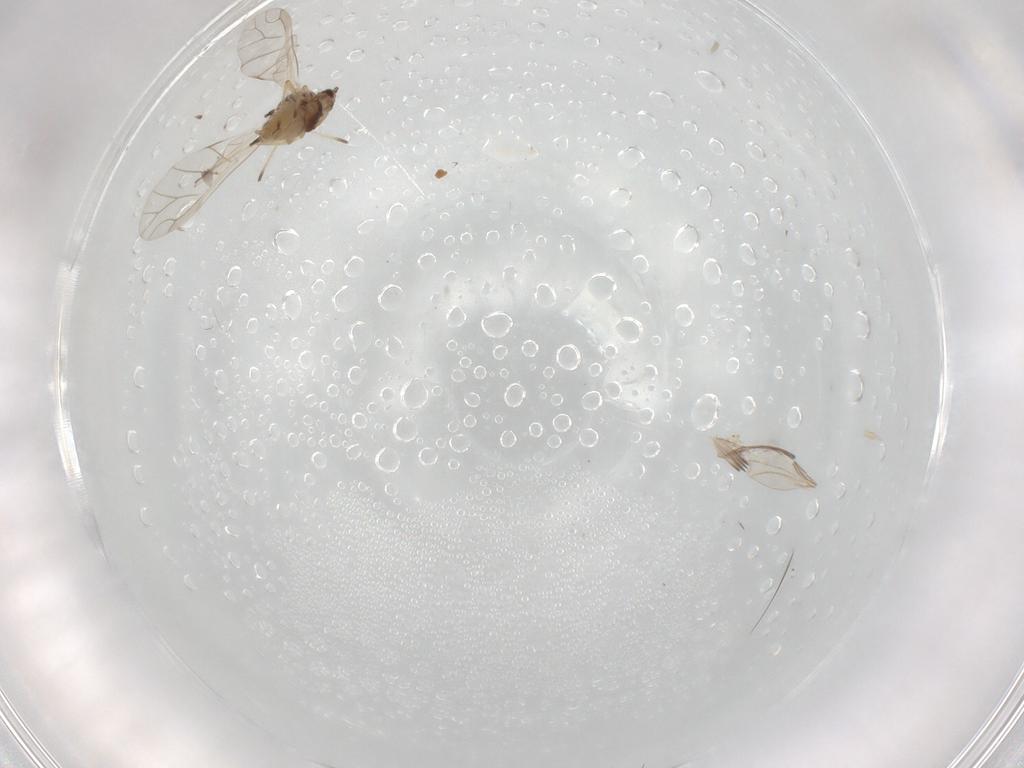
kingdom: Animalia
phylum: Arthropoda
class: Insecta
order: Hemiptera
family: Aphididae
